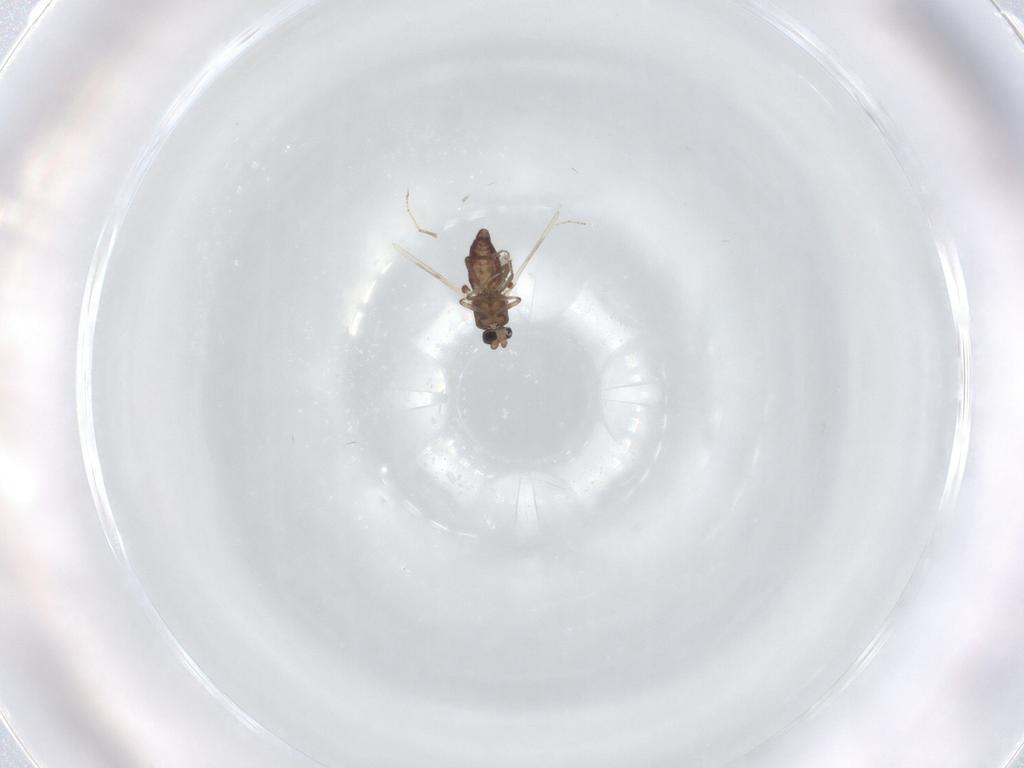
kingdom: Animalia
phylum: Arthropoda
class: Insecta
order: Diptera
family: Ceratopogonidae
